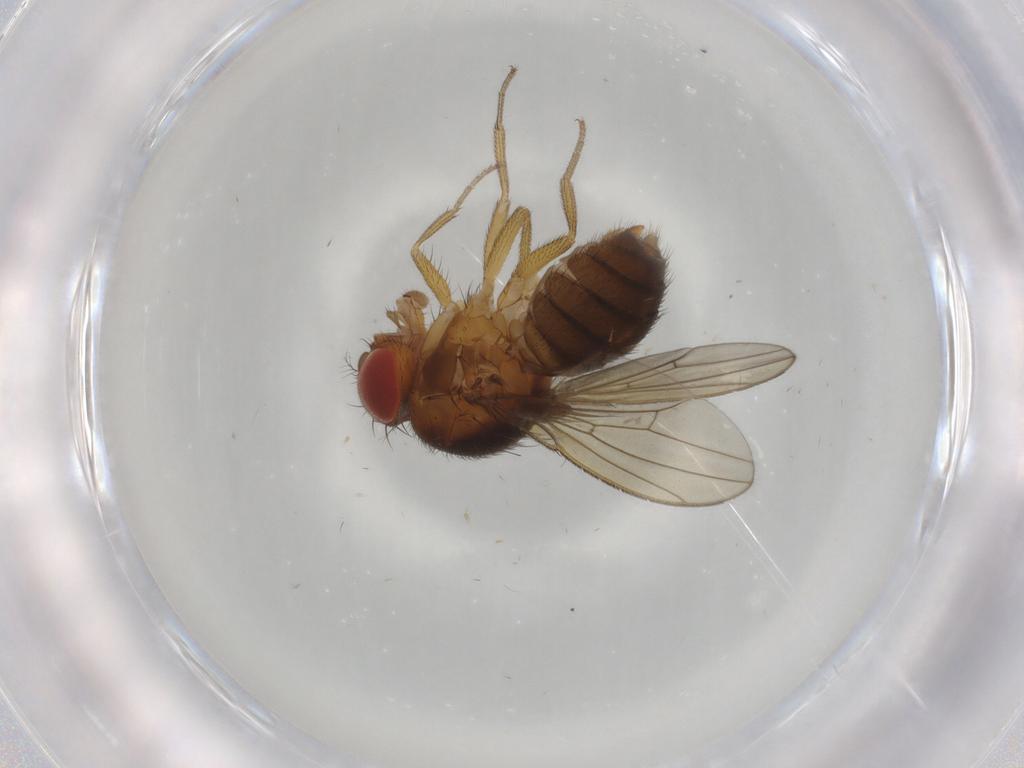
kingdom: Animalia
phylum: Arthropoda
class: Insecta
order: Diptera
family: Drosophilidae
